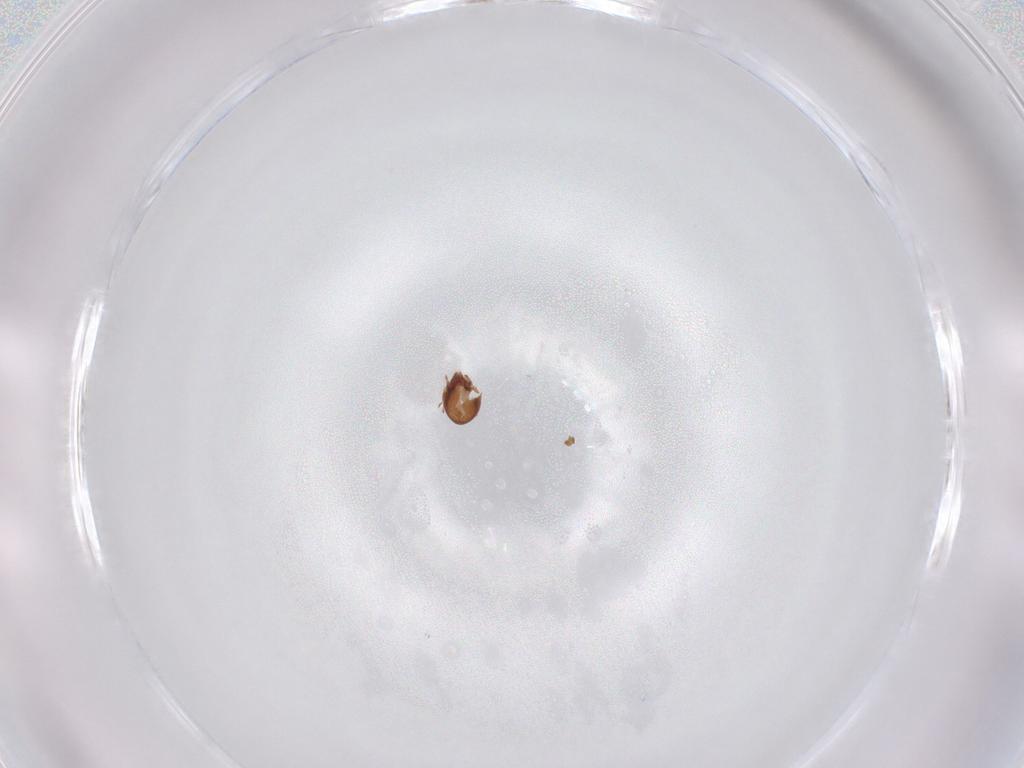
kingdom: Animalia
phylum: Arthropoda
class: Arachnida
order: Sarcoptiformes
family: Ceratozetidae
